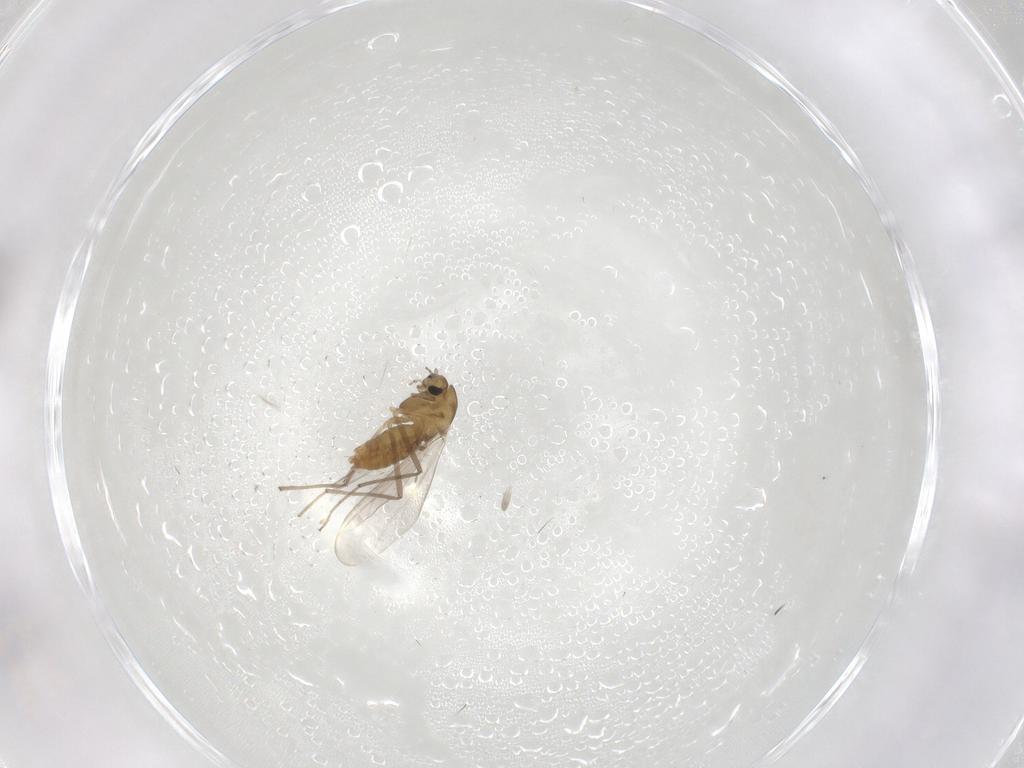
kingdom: Animalia
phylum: Arthropoda
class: Insecta
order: Diptera
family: Chironomidae
